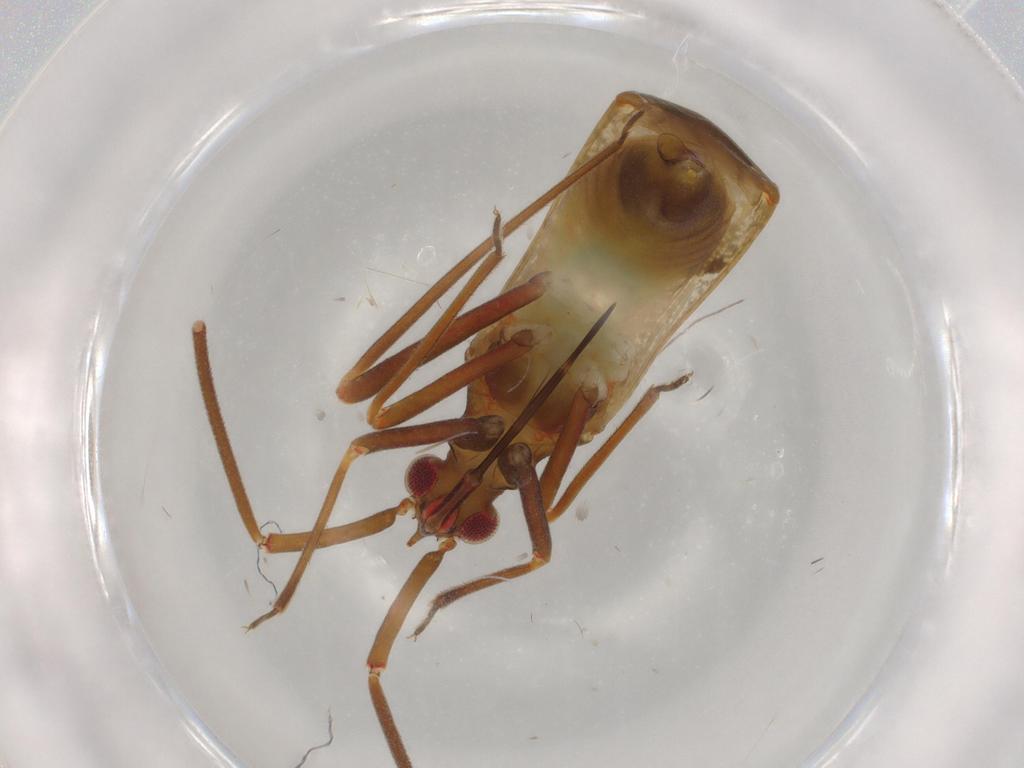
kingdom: Animalia
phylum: Arthropoda
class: Insecta
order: Hemiptera
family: Miridae
